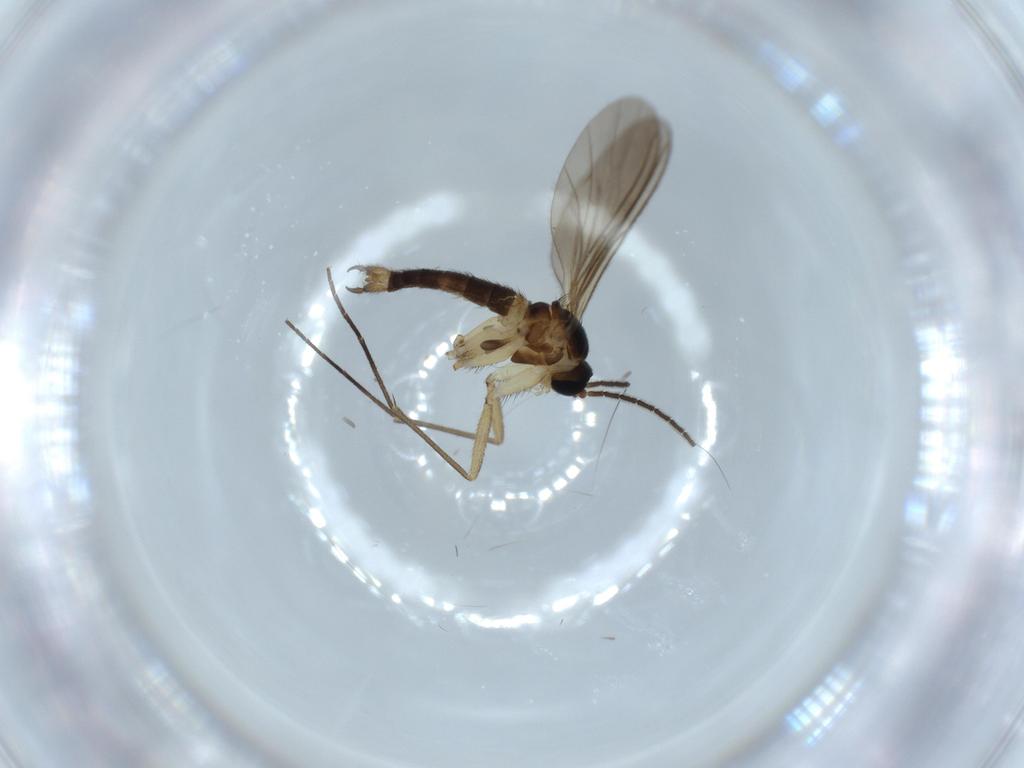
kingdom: Animalia
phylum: Arthropoda
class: Insecta
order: Diptera
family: Sciaridae
